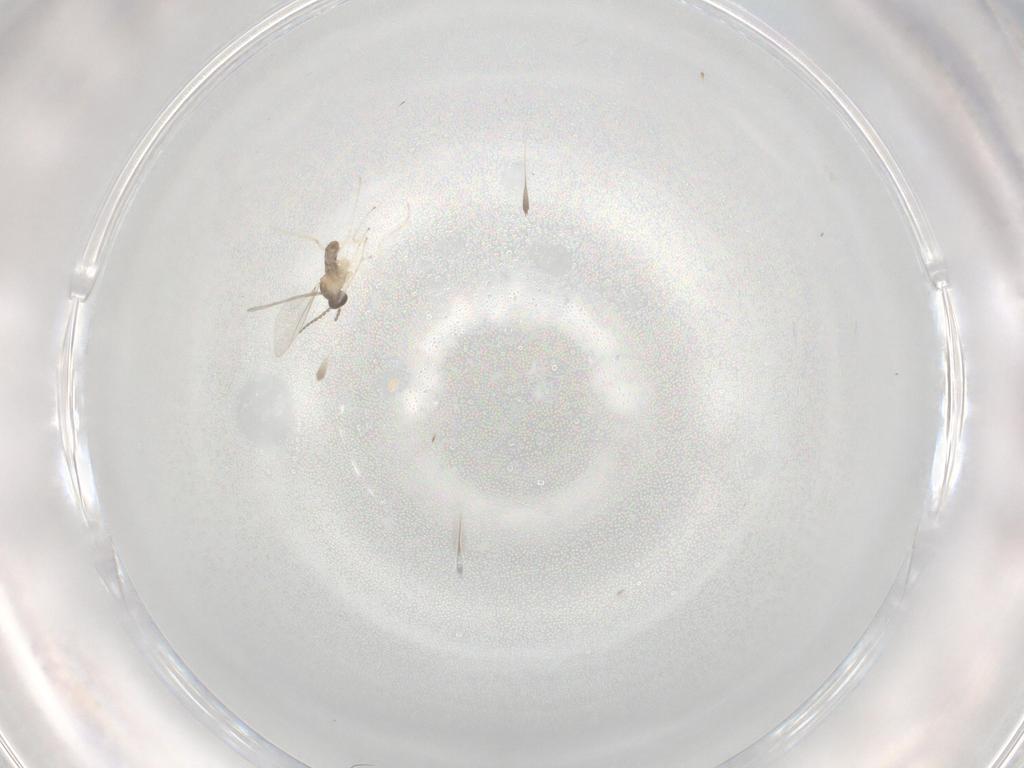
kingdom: Animalia
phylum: Arthropoda
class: Insecta
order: Diptera
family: Cecidomyiidae
